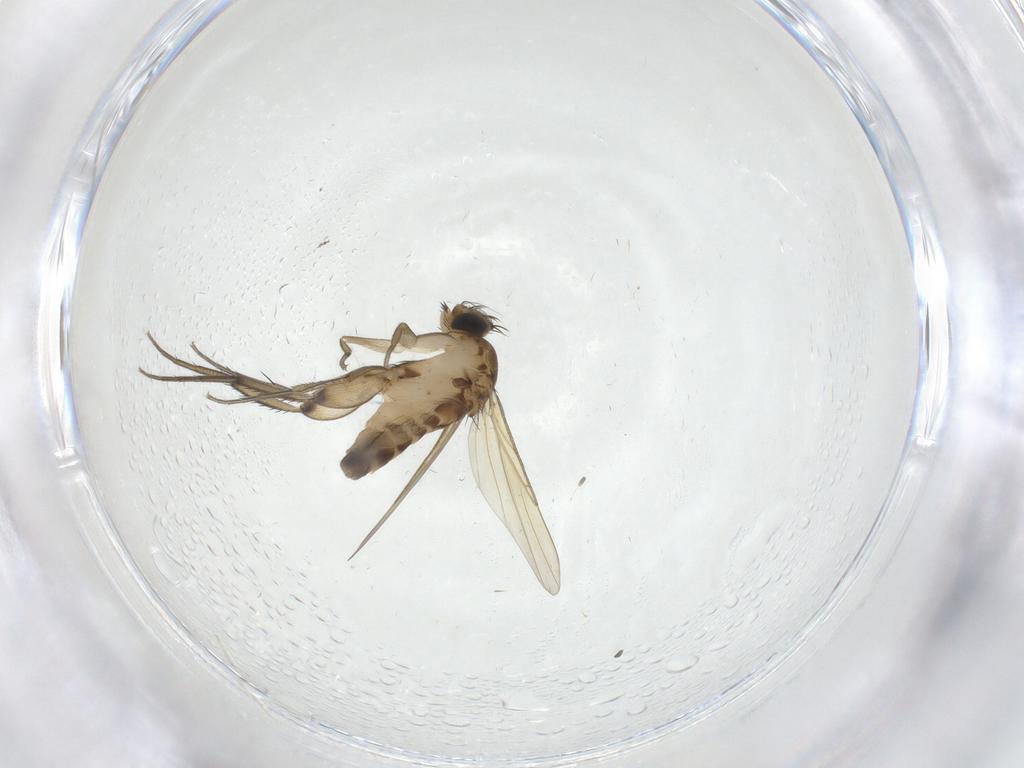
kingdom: Animalia
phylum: Arthropoda
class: Insecta
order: Diptera
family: Phoridae
